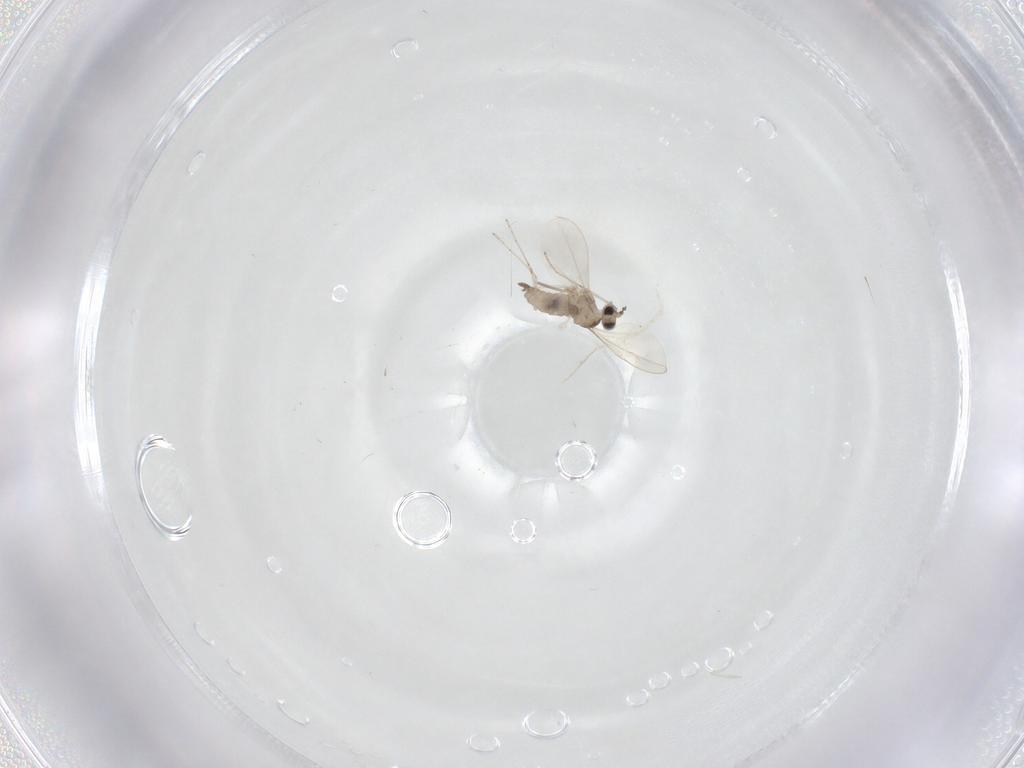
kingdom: Animalia
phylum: Arthropoda
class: Insecta
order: Diptera
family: Cecidomyiidae
